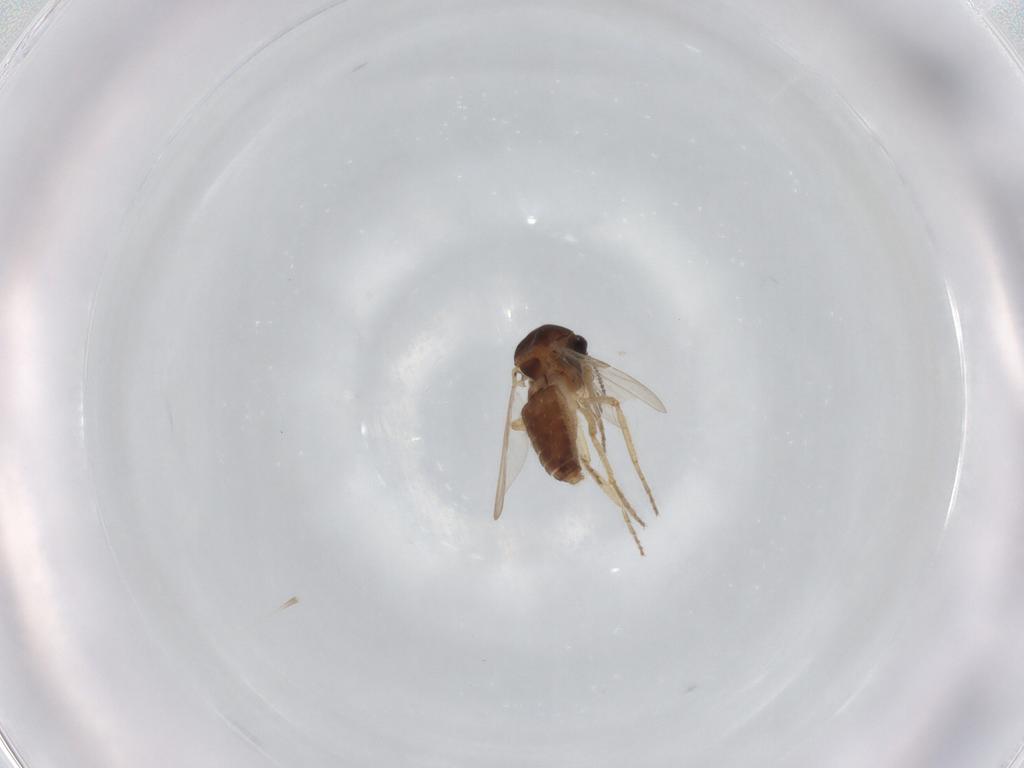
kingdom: Animalia
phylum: Arthropoda
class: Insecta
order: Diptera
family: Ceratopogonidae
